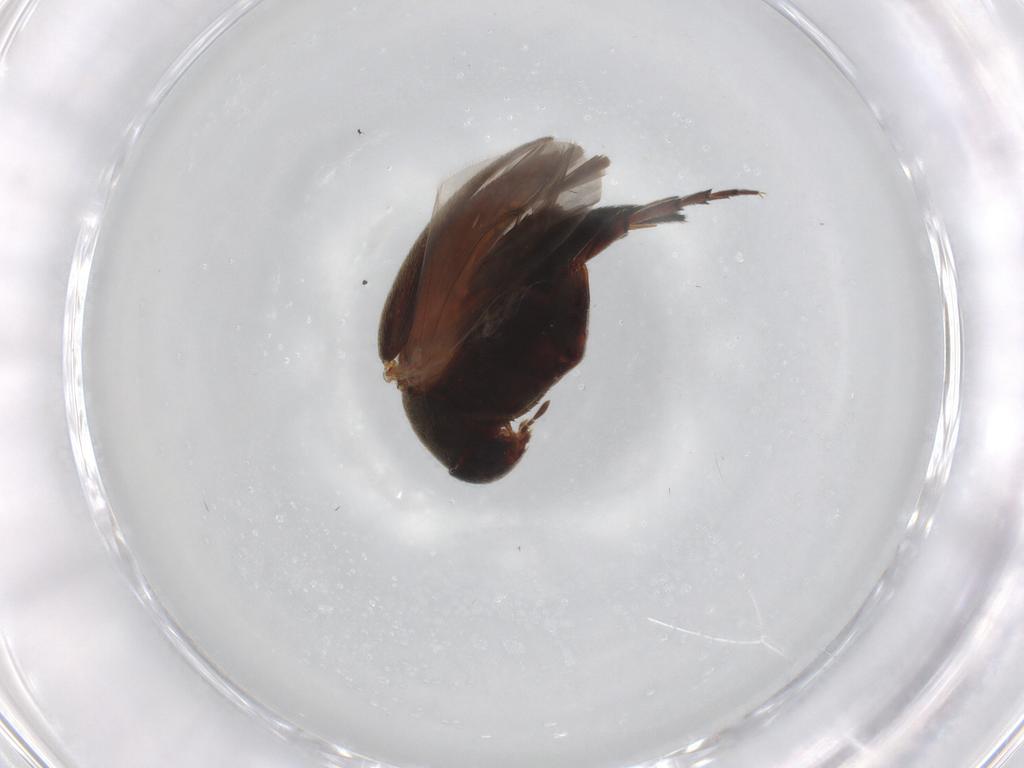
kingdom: Animalia
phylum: Arthropoda
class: Insecta
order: Coleoptera
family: Mordellidae
